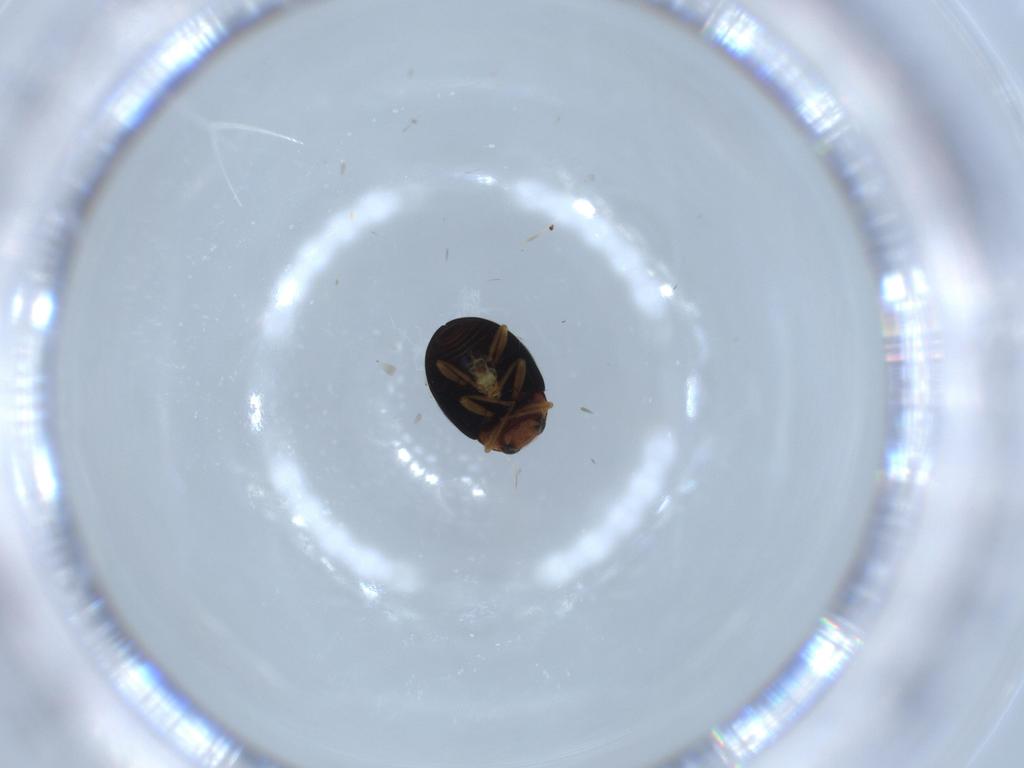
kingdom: Animalia
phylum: Arthropoda
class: Insecta
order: Coleoptera
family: Coccinellidae
